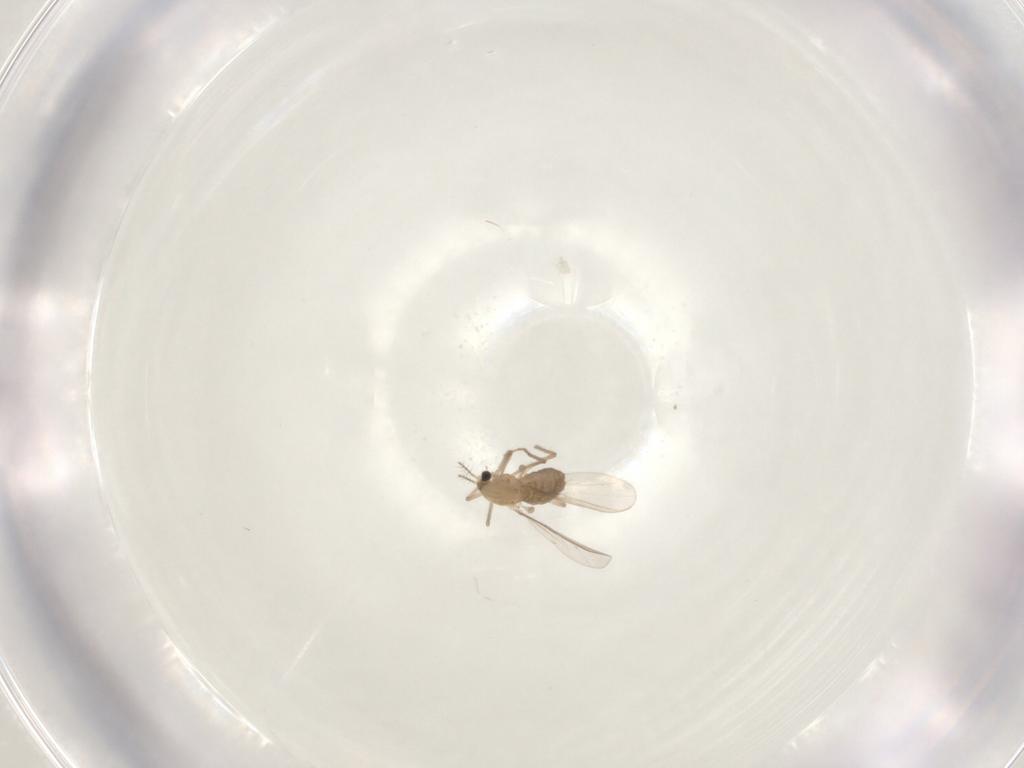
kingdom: Animalia
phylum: Arthropoda
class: Insecta
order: Diptera
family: Chironomidae
